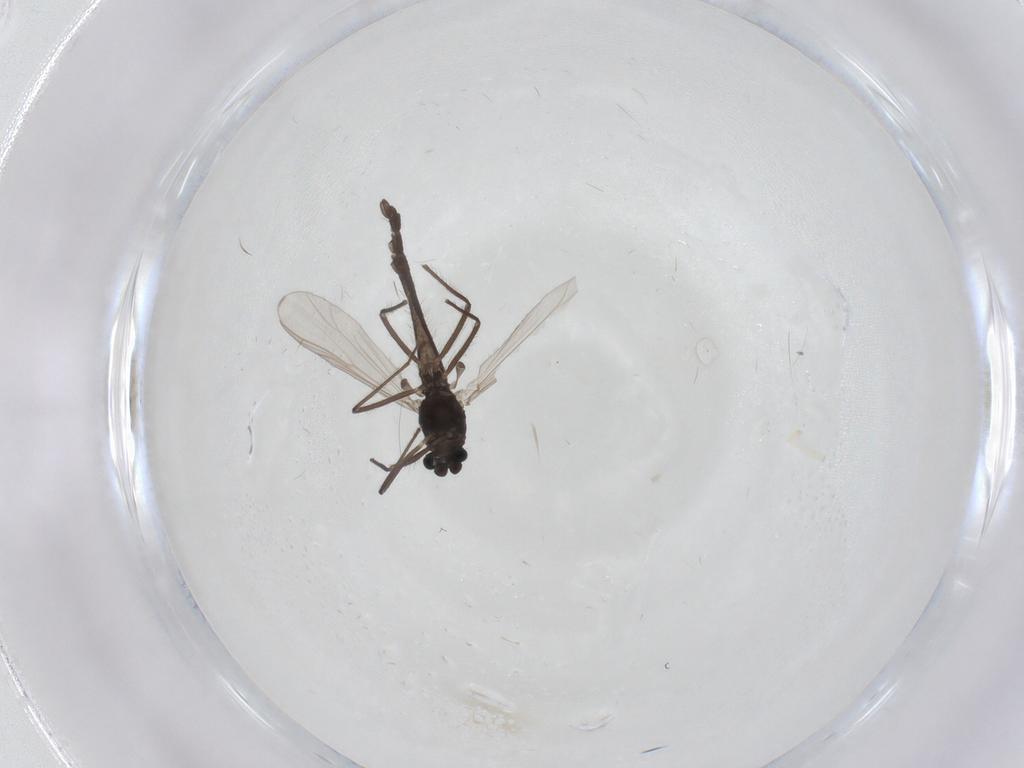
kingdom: Animalia
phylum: Arthropoda
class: Insecta
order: Diptera
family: Chironomidae
